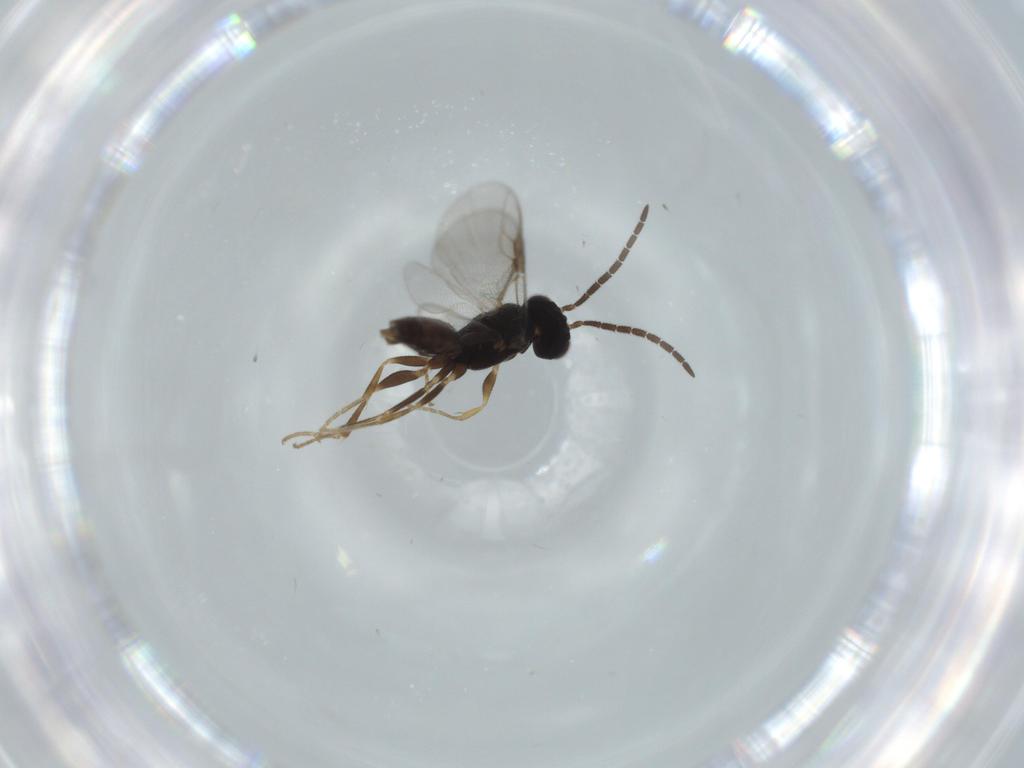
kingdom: Animalia
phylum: Arthropoda
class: Insecta
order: Hymenoptera
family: Dryinidae
